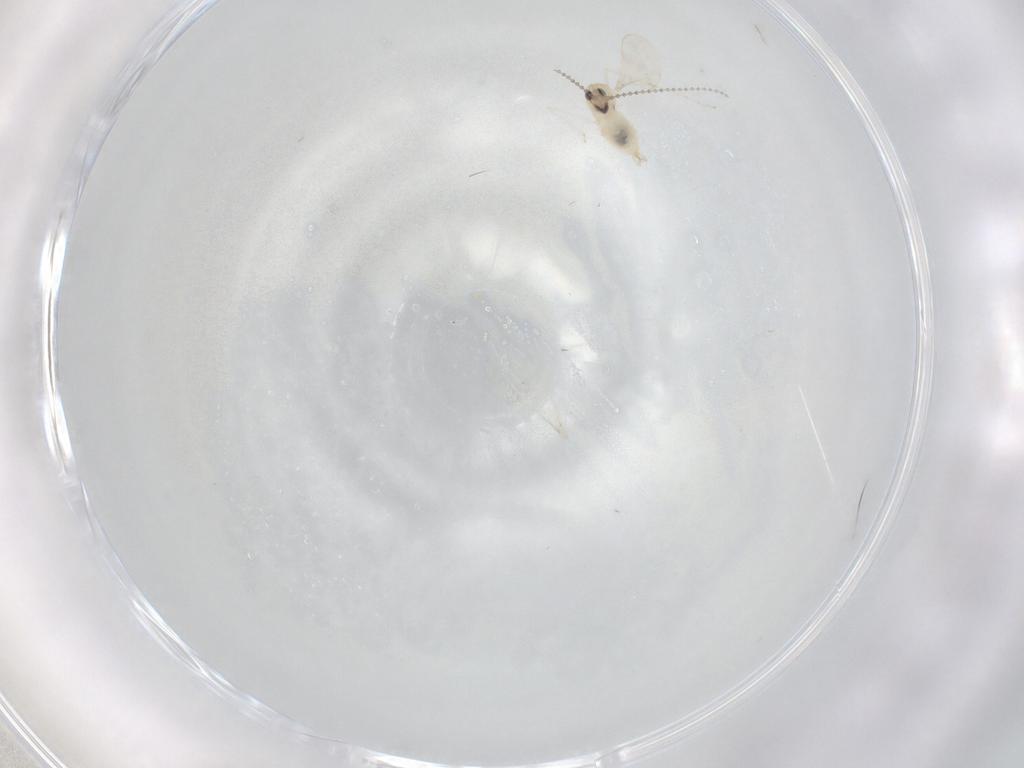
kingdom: Animalia
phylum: Arthropoda
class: Insecta
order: Diptera
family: Cecidomyiidae
